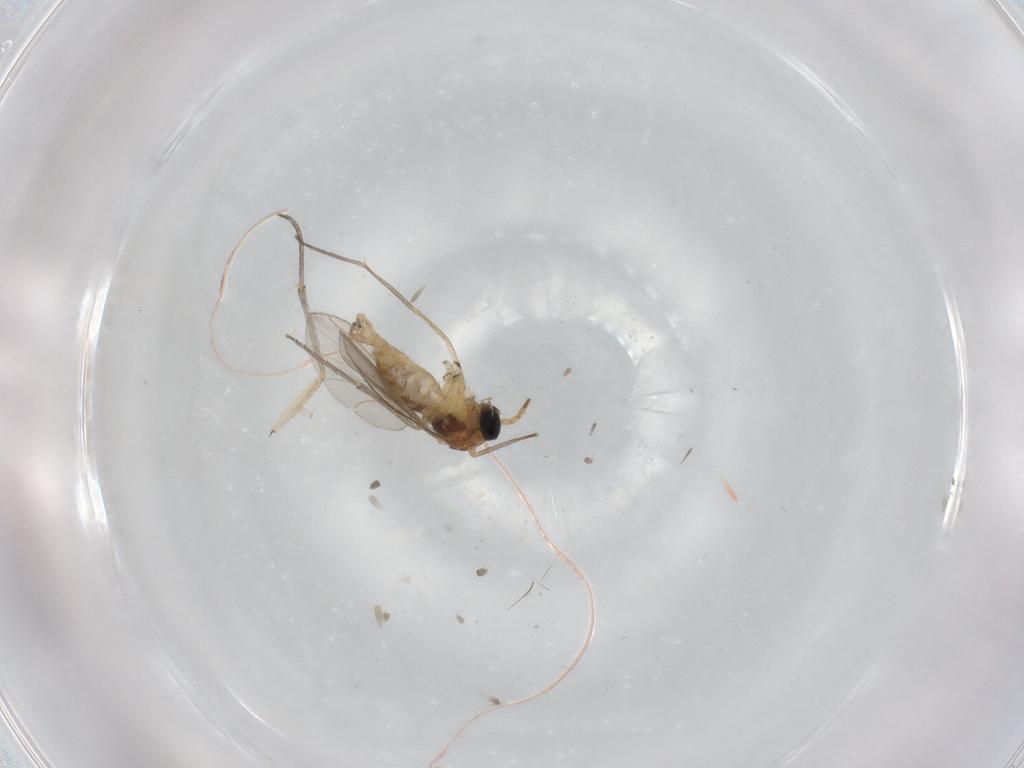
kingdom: Animalia
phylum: Arthropoda
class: Insecta
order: Diptera
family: Sciaridae
